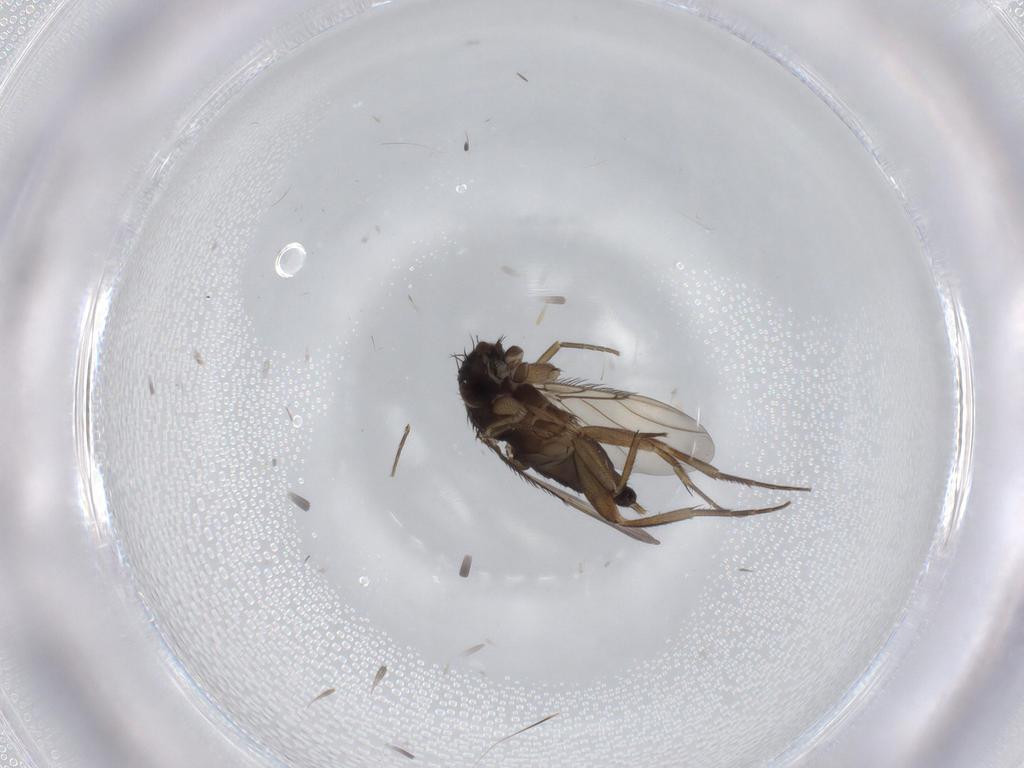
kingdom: Animalia
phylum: Arthropoda
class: Insecta
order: Diptera
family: Phoridae
